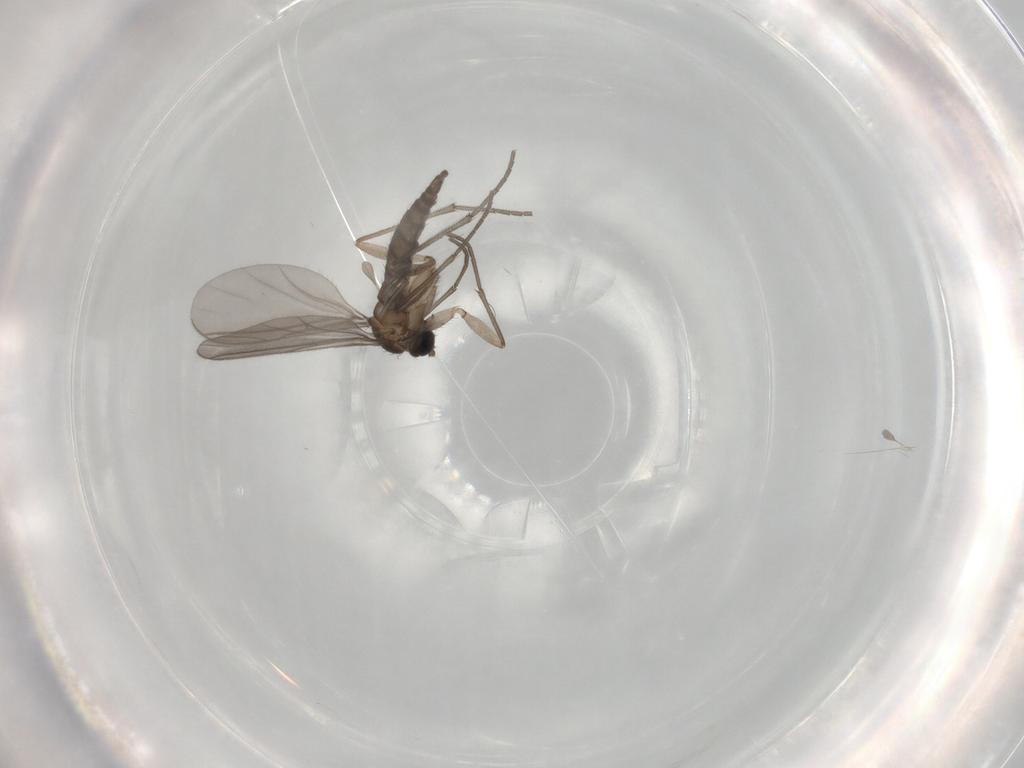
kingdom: Animalia
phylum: Arthropoda
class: Insecta
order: Diptera
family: Sciaridae
